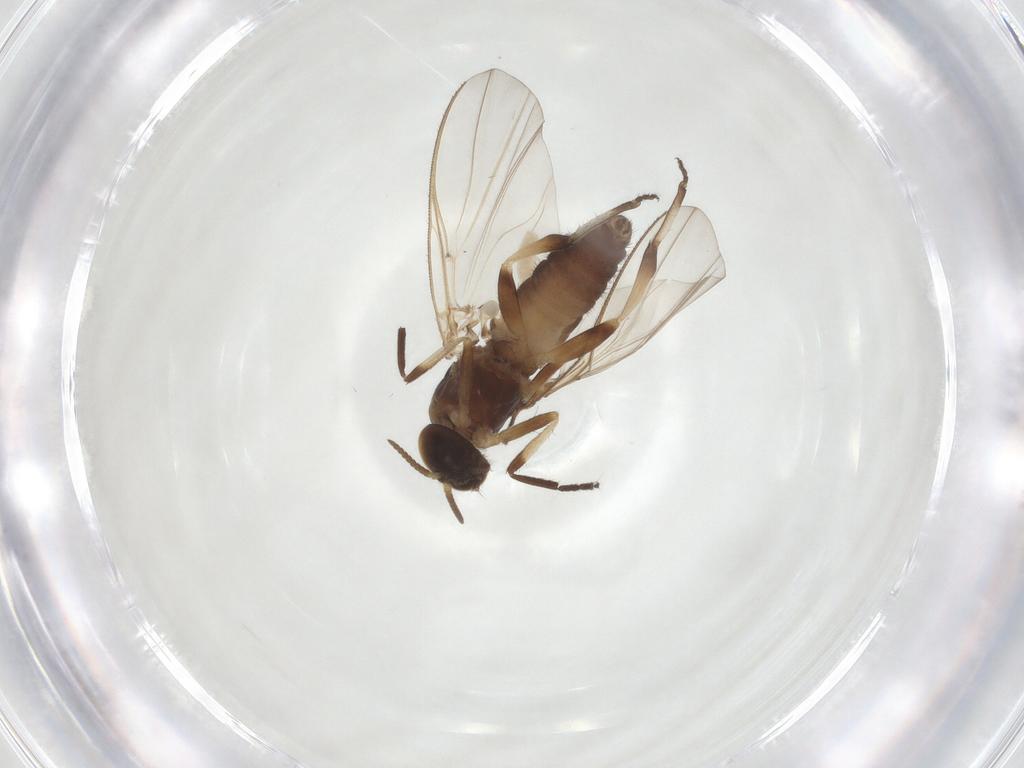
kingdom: Animalia
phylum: Arthropoda
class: Insecta
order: Diptera
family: Simuliidae
